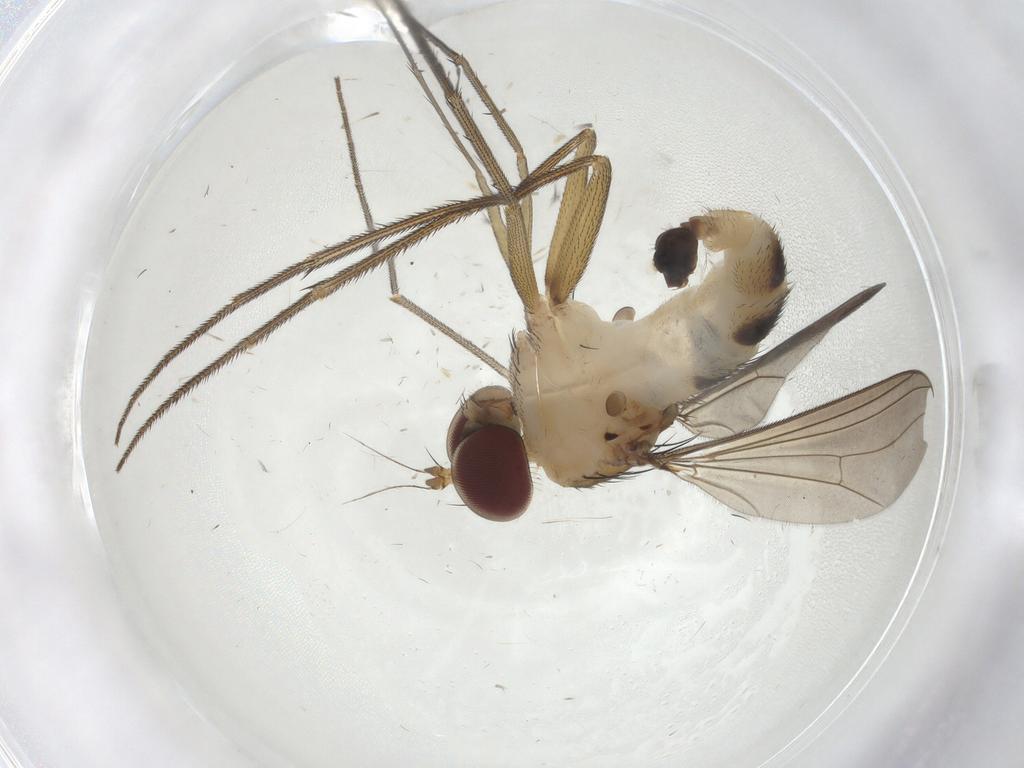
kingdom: Animalia
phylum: Arthropoda
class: Insecta
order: Diptera
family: Dolichopodidae
